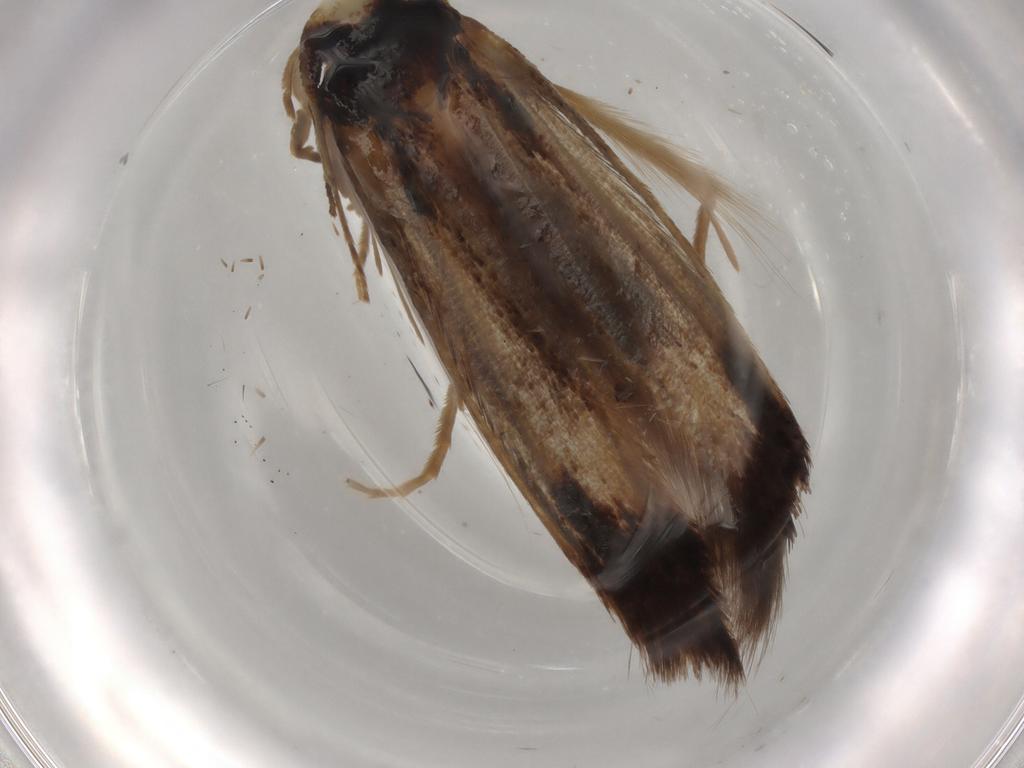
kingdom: Animalia
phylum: Arthropoda
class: Insecta
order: Lepidoptera
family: Tineidae
